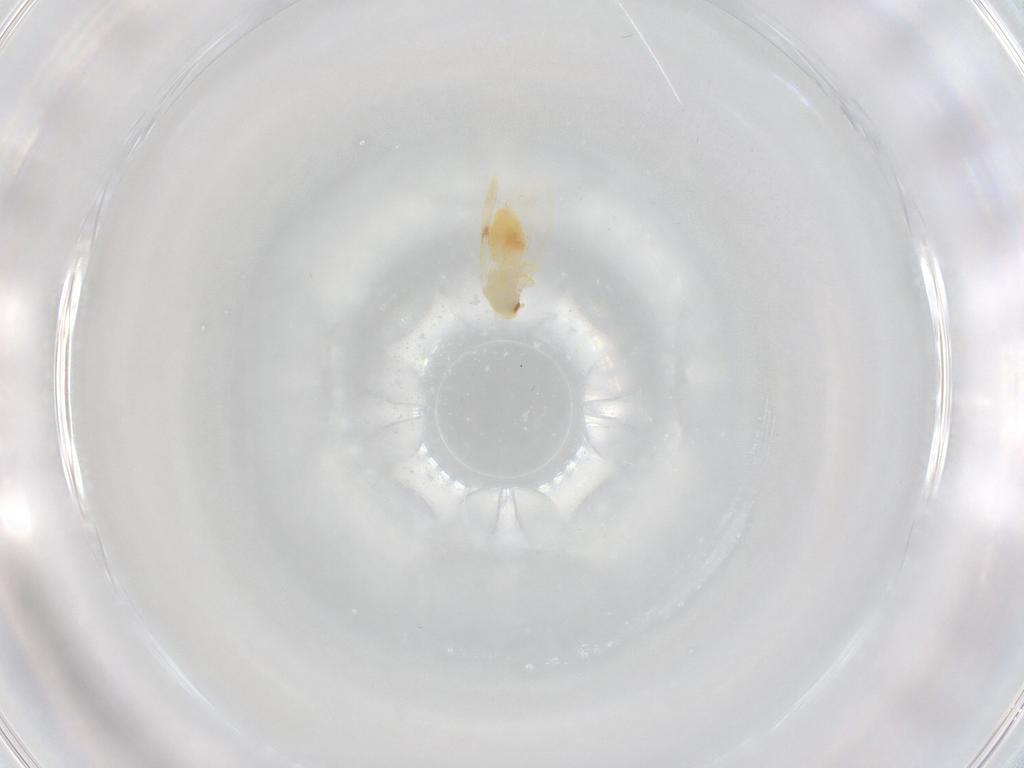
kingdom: Animalia
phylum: Arthropoda
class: Insecta
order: Hemiptera
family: Aleyrodidae
